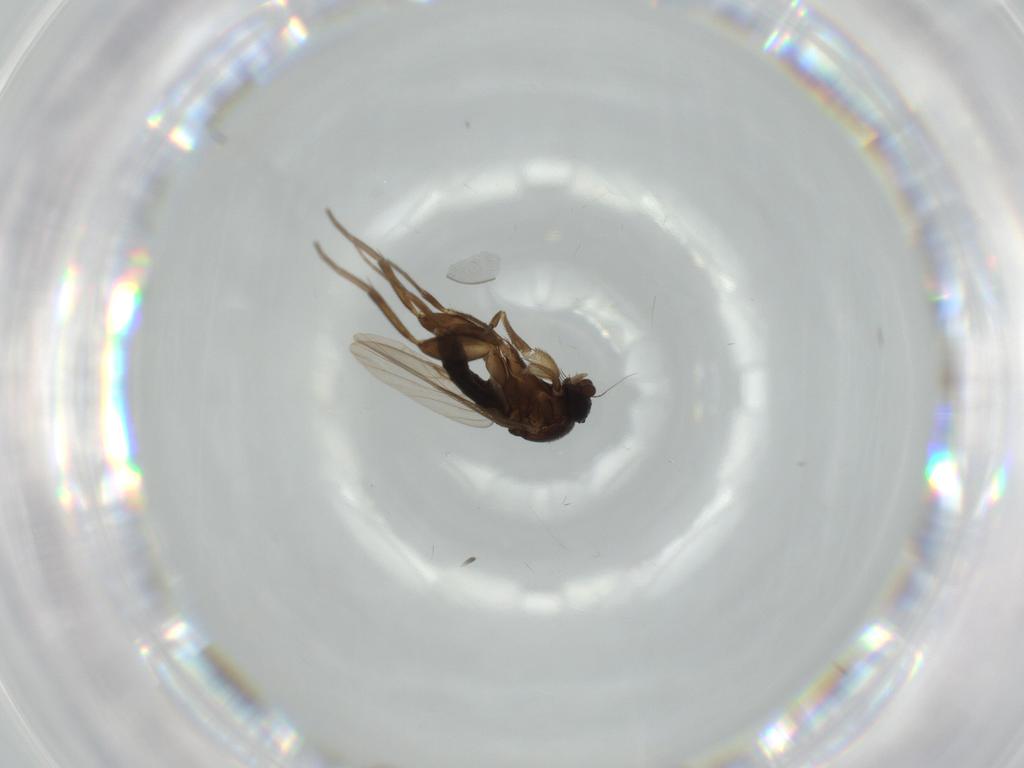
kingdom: Animalia
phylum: Arthropoda
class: Insecta
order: Diptera
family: Phoridae
